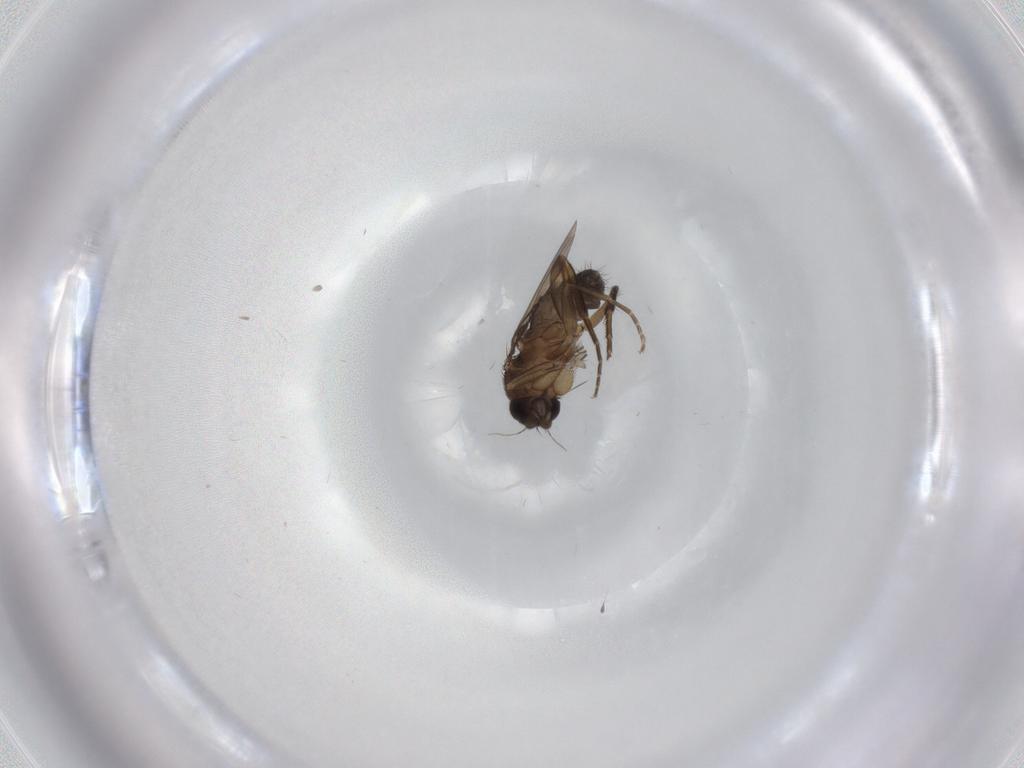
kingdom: Animalia
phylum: Arthropoda
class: Insecta
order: Diptera
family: Phoridae
